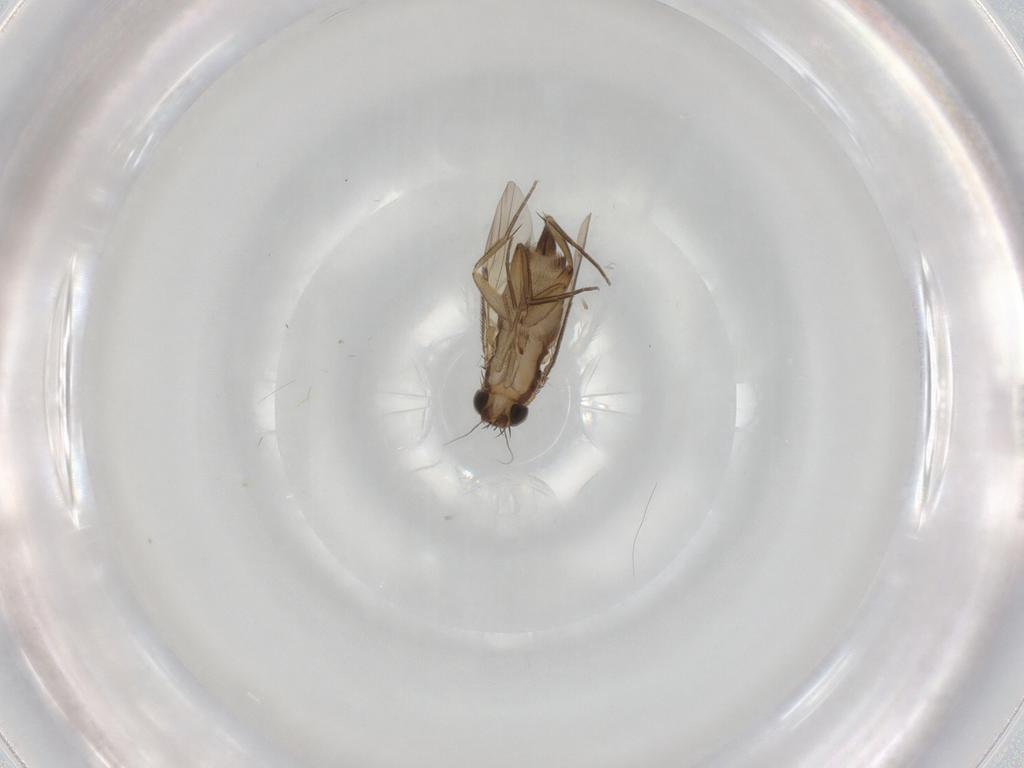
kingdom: Animalia
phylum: Arthropoda
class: Insecta
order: Diptera
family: Phoridae
